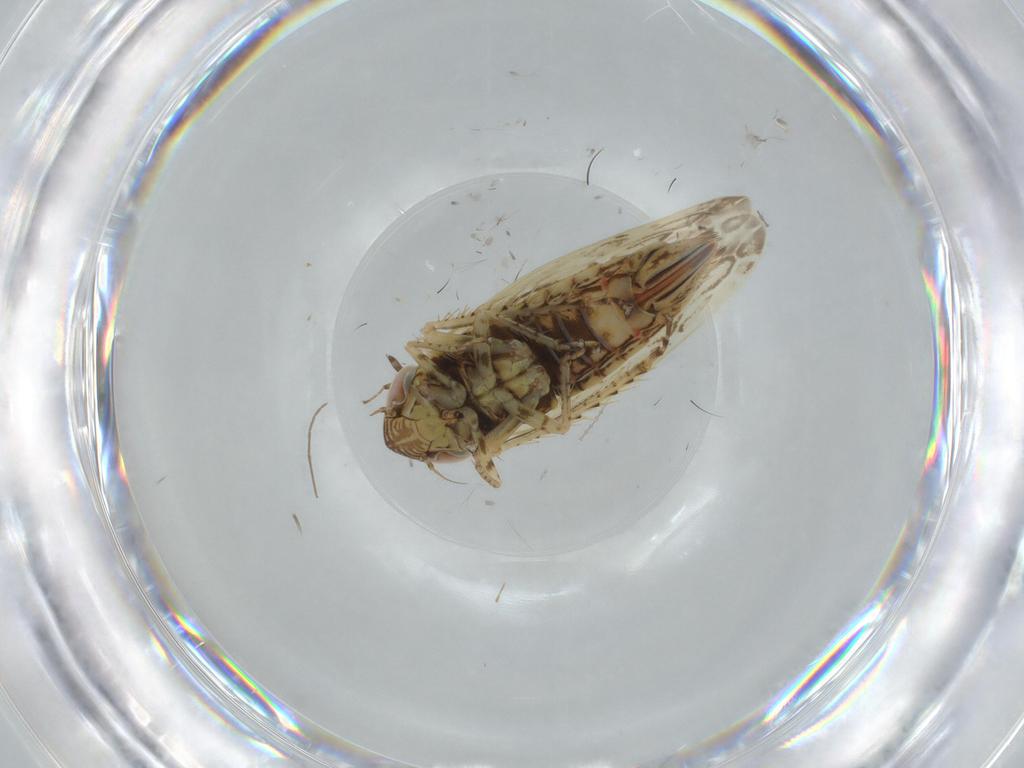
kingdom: Animalia
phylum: Arthropoda
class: Insecta
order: Hemiptera
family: Cicadellidae
